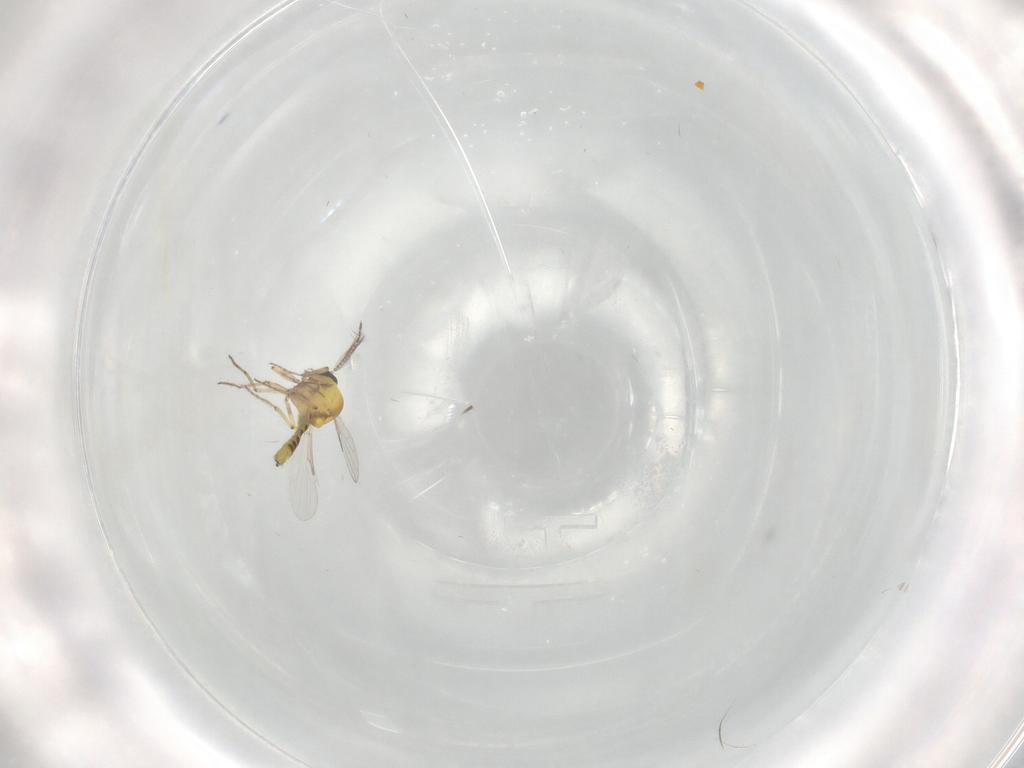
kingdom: Animalia
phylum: Arthropoda
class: Insecta
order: Diptera
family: Ceratopogonidae
